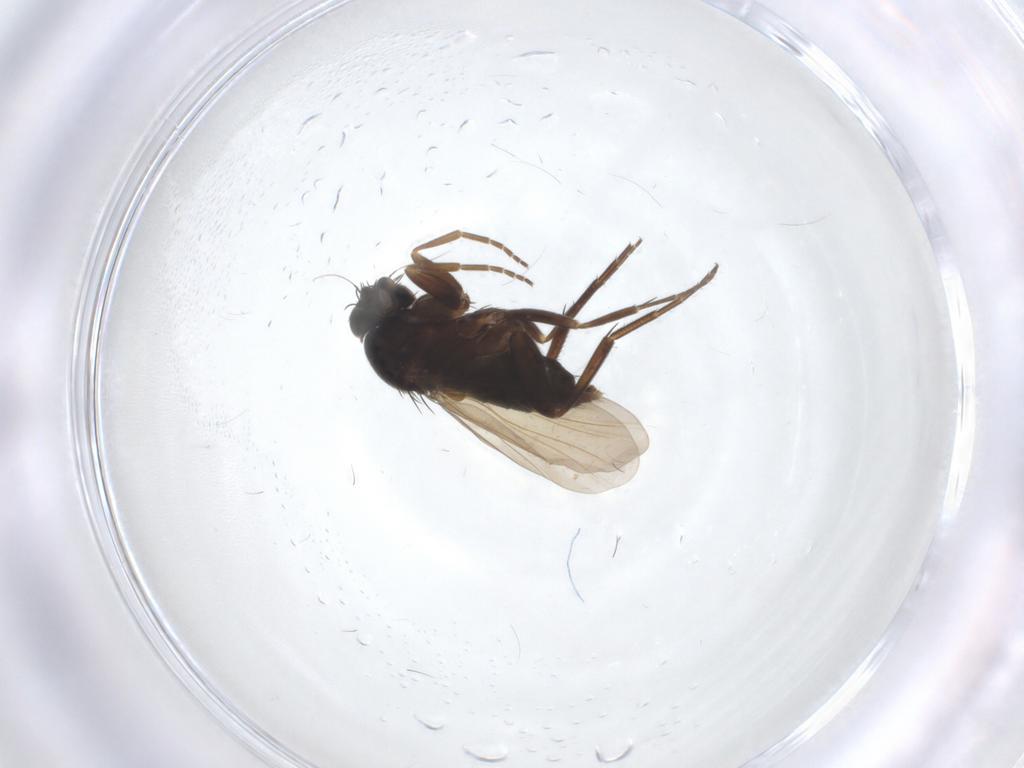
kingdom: Animalia
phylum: Arthropoda
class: Insecta
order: Diptera
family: Phoridae
